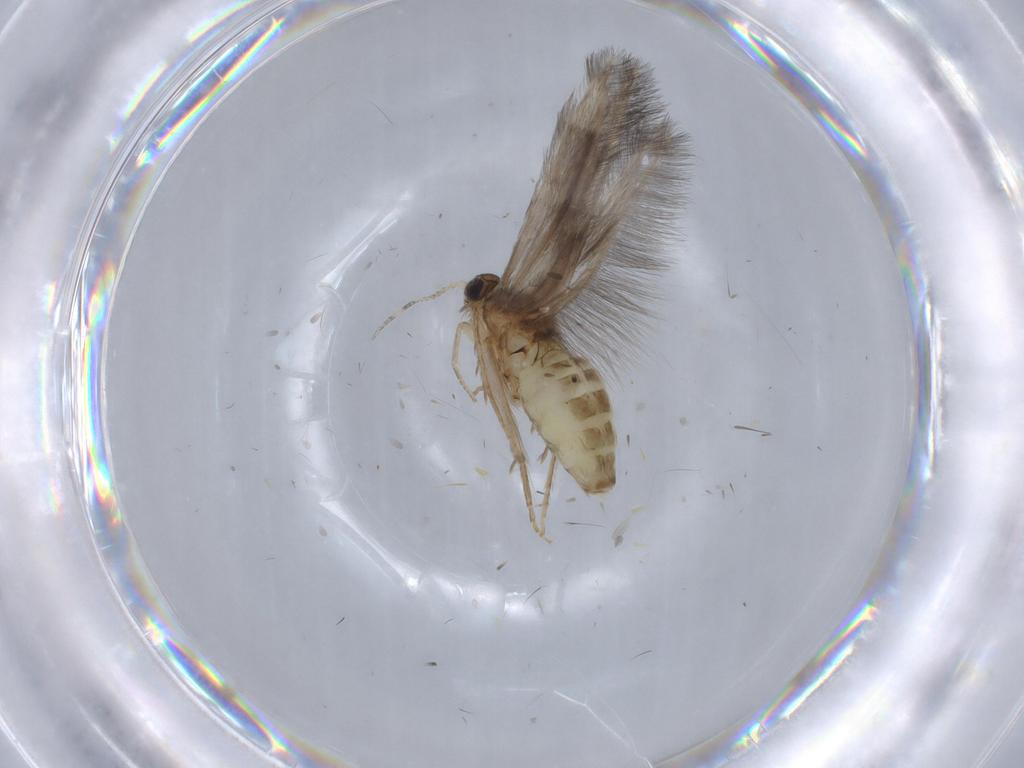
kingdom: Animalia
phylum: Arthropoda
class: Insecta
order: Trichoptera
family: Hydroptilidae
